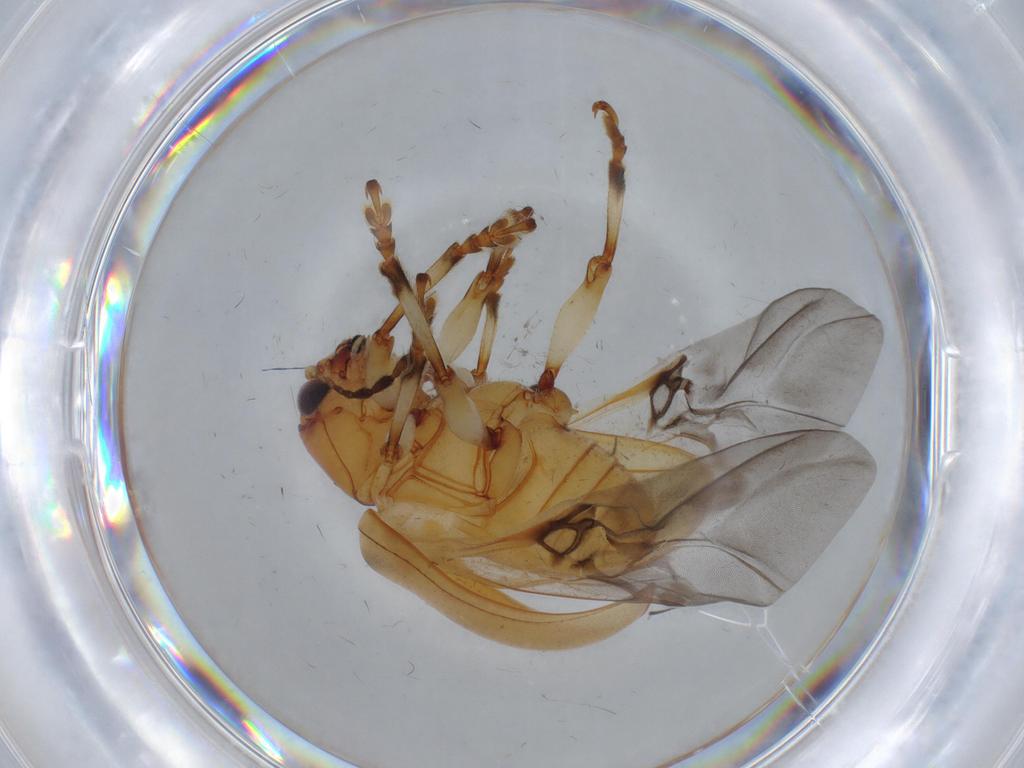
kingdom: Animalia
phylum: Arthropoda
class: Insecta
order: Coleoptera
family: Chrysomelidae
